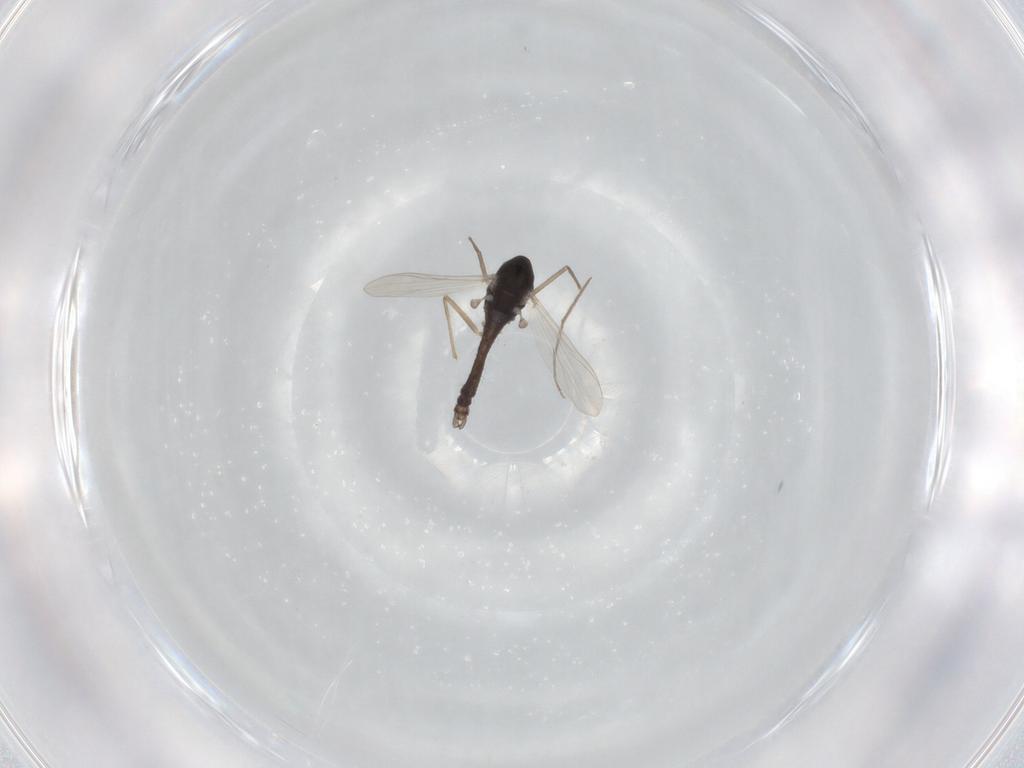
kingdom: Animalia
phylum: Arthropoda
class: Insecta
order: Diptera
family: Chironomidae
